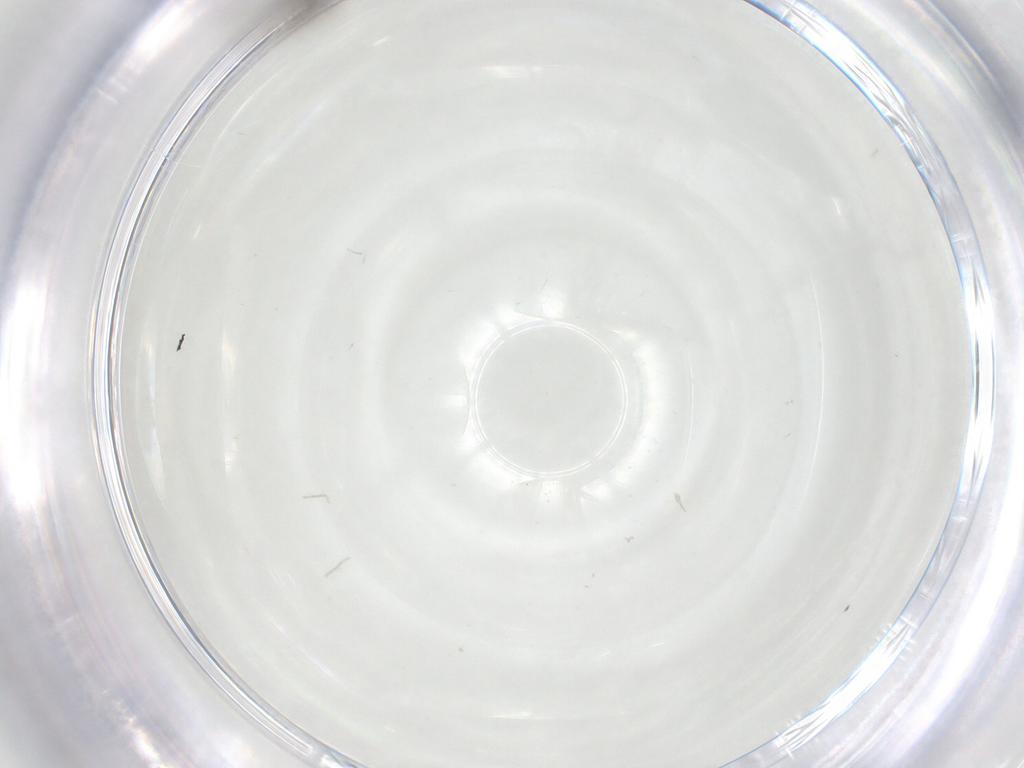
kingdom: Animalia
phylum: Arthropoda
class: Insecta
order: Diptera
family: Cecidomyiidae
